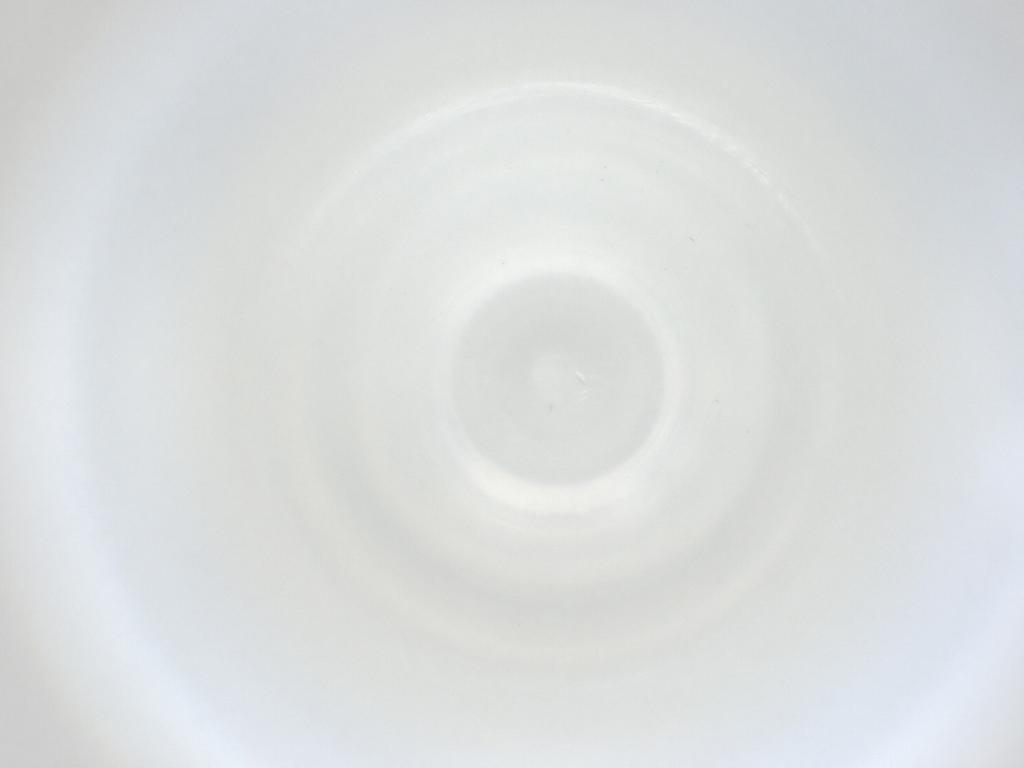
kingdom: Animalia
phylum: Arthropoda
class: Insecta
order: Diptera
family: Cecidomyiidae
